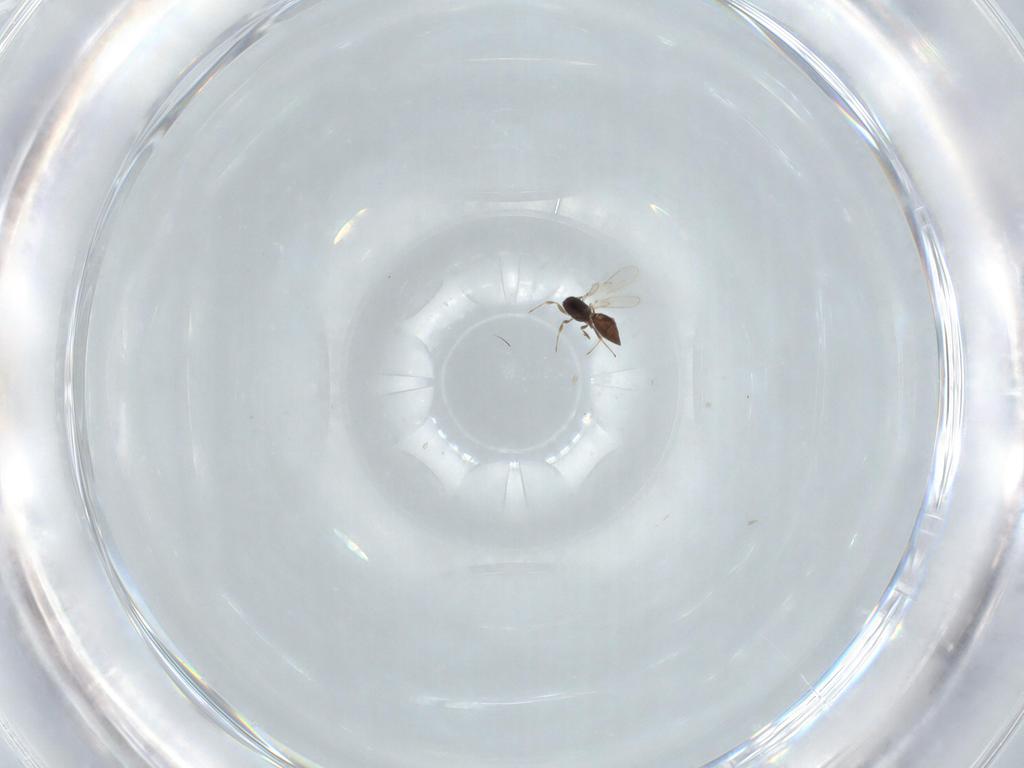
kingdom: Animalia
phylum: Arthropoda
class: Insecta
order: Hymenoptera
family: Scelionidae
